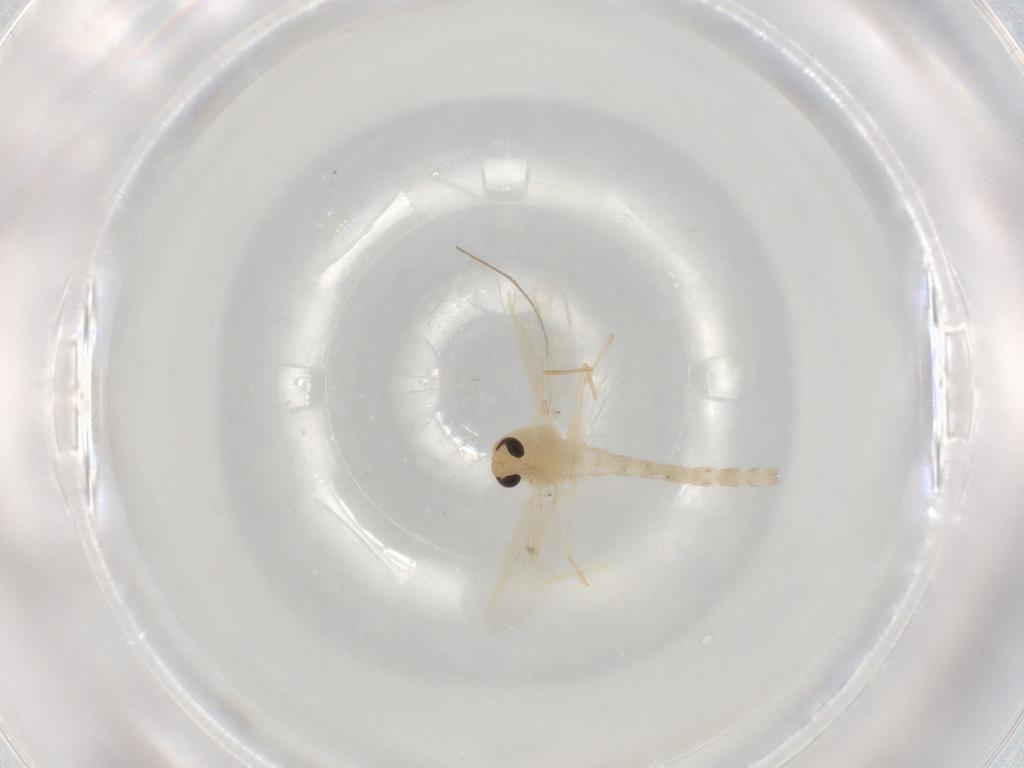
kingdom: Animalia
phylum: Arthropoda
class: Insecta
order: Diptera
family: Chironomidae
